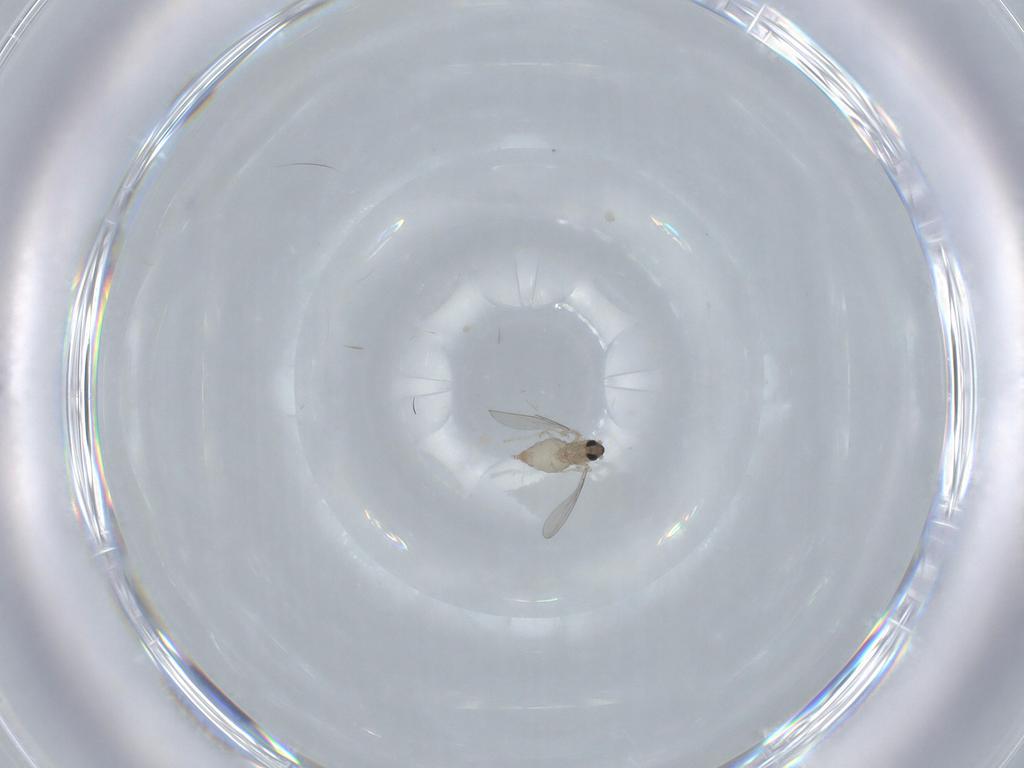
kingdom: Animalia
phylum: Arthropoda
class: Insecta
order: Diptera
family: Cecidomyiidae
